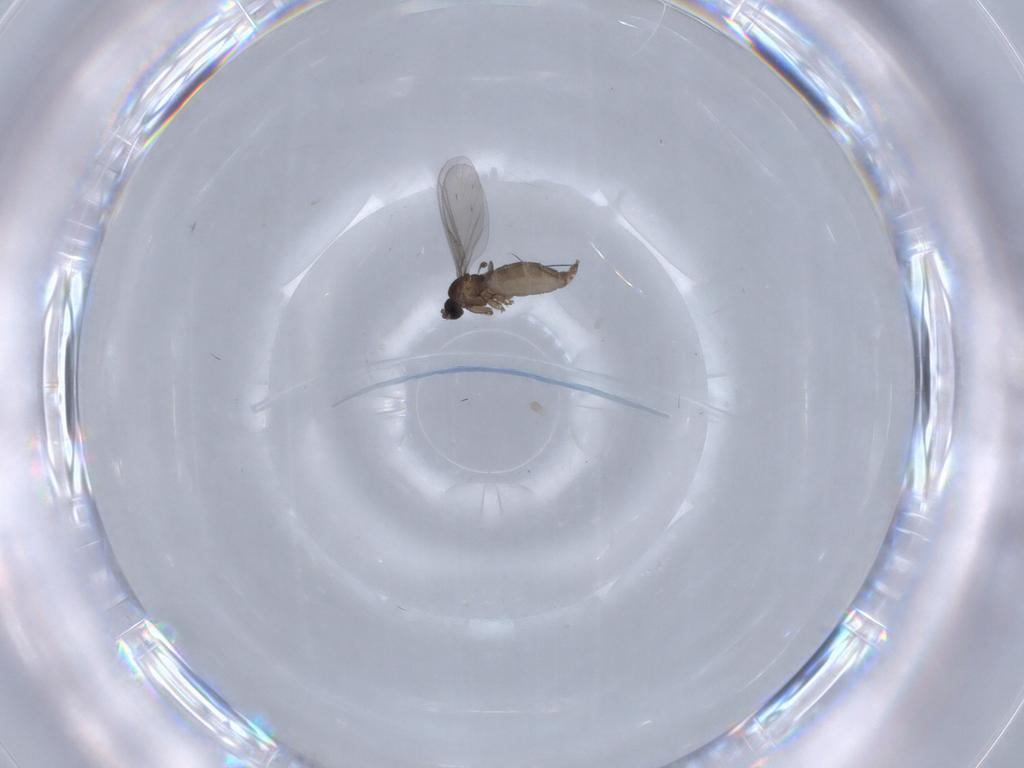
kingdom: Animalia
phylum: Arthropoda
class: Insecta
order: Diptera
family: Sciaridae
